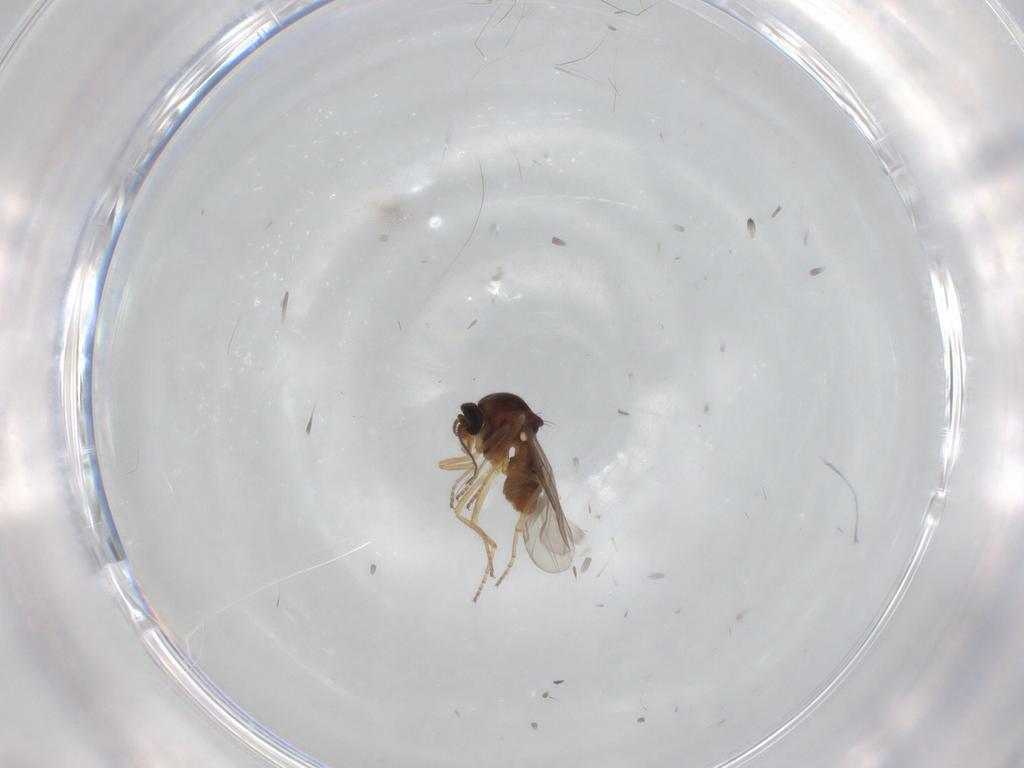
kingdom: Animalia
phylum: Arthropoda
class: Insecta
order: Diptera
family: Ceratopogonidae
